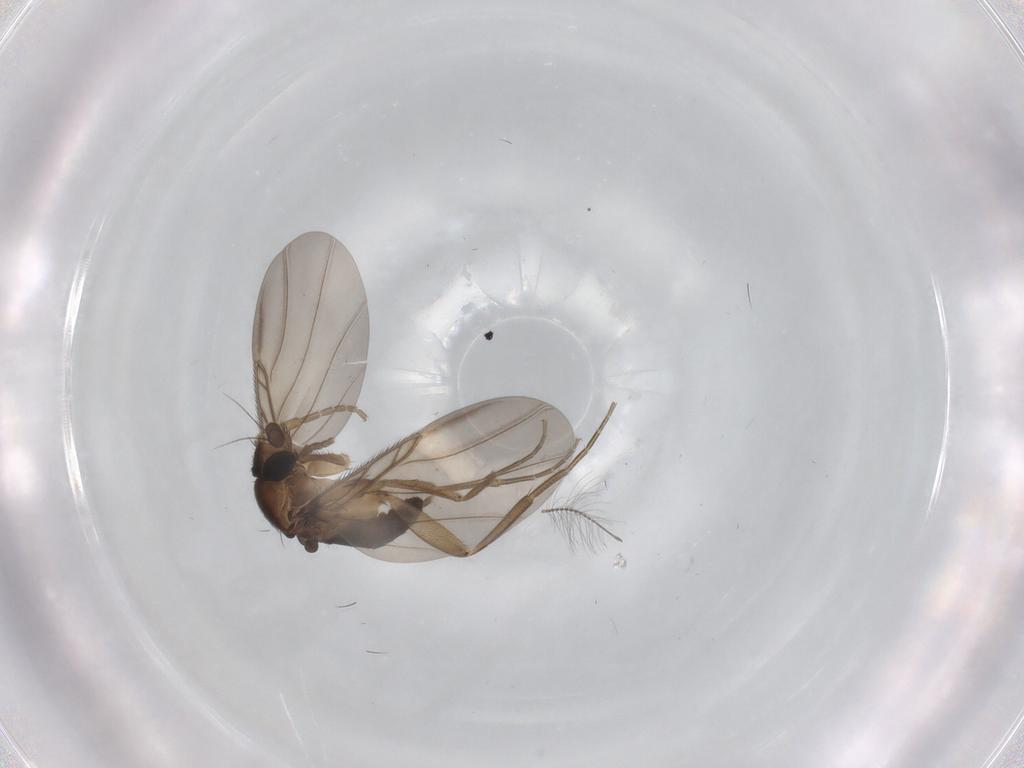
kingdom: Animalia
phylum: Arthropoda
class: Insecta
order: Diptera
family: Phoridae
